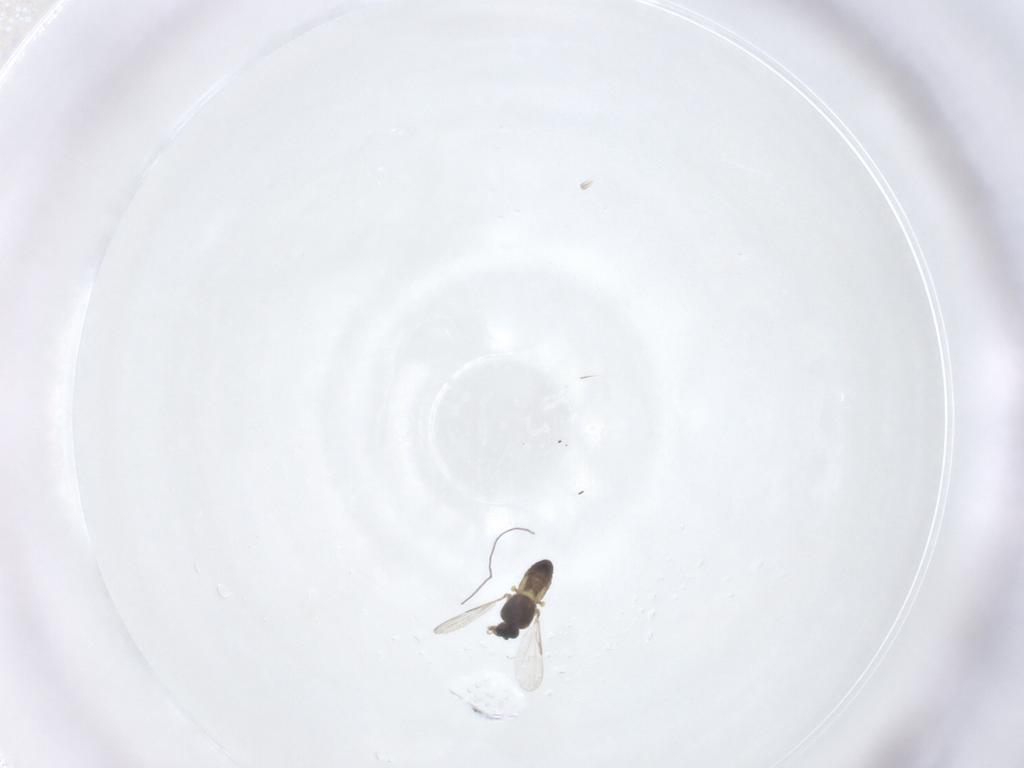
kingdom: Animalia
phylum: Arthropoda
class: Insecta
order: Diptera
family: Ceratopogonidae
